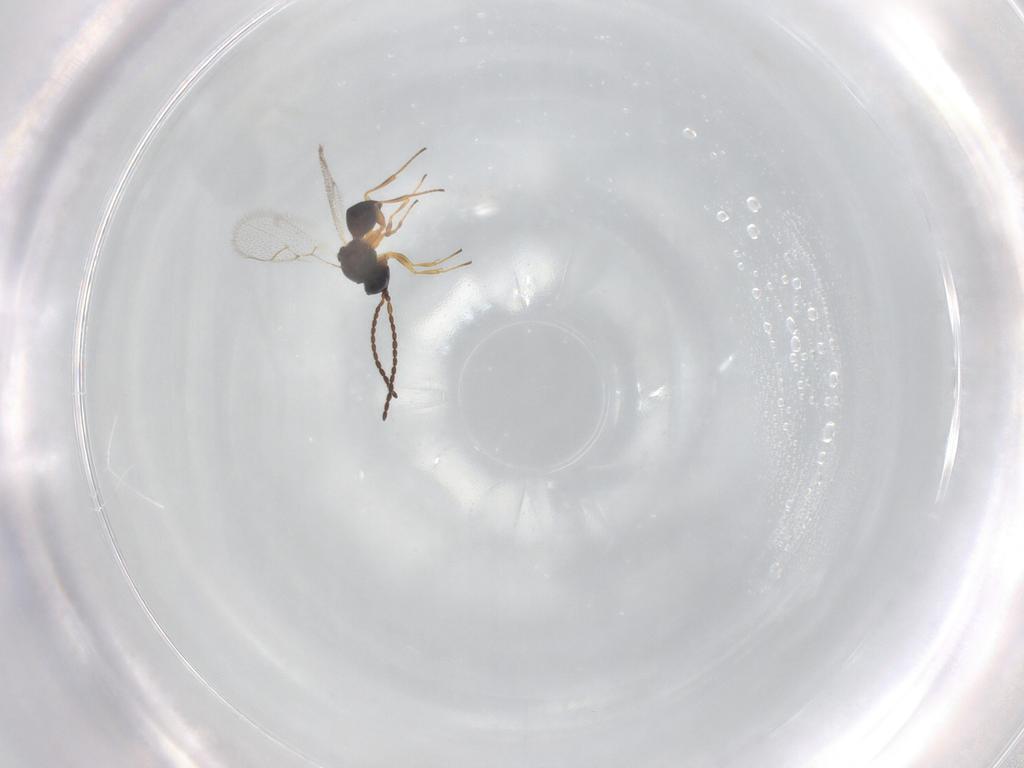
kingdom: Animalia
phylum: Arthropoda
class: Insecta
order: Hymenoptera
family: Figitidae
